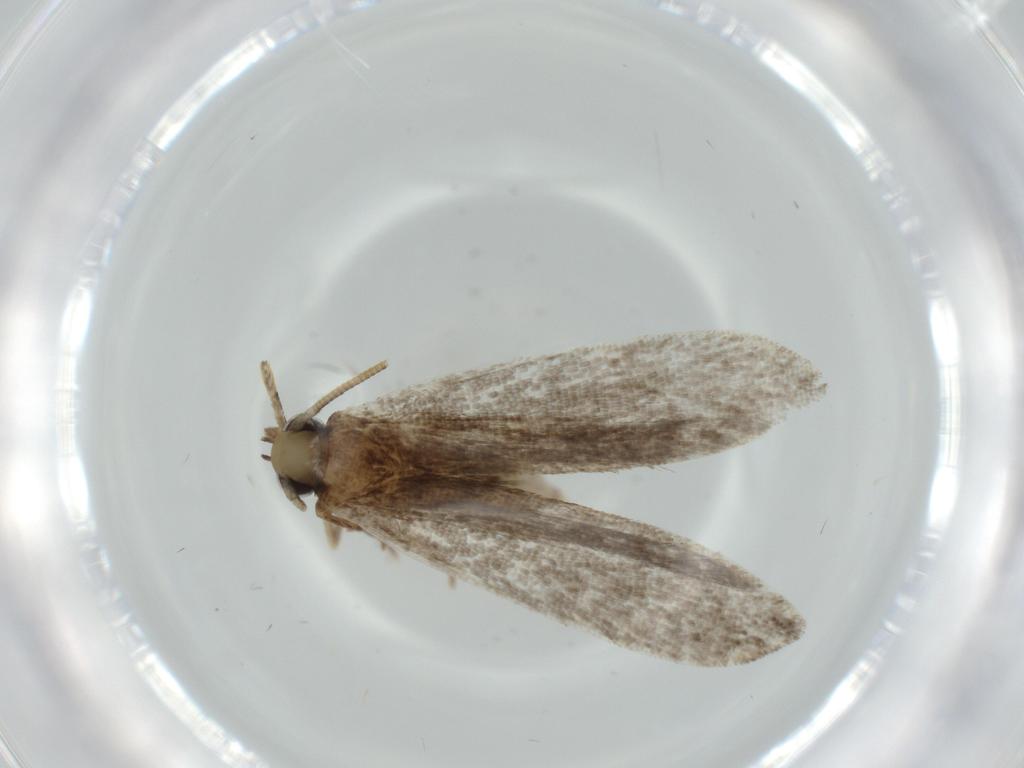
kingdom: Animalia
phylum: Arthropoda
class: Insecta
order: Lepidoptera
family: Tineidae
